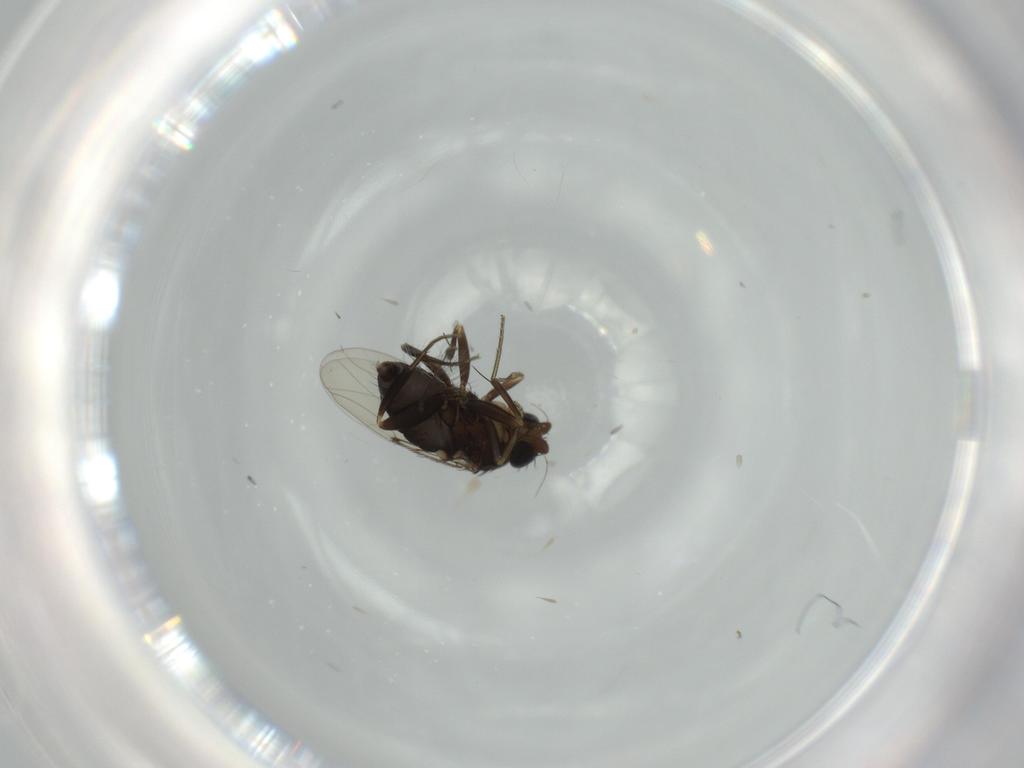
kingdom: Animalia
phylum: Arthropoda
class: Insecta
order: Diptera
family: Phoridae
